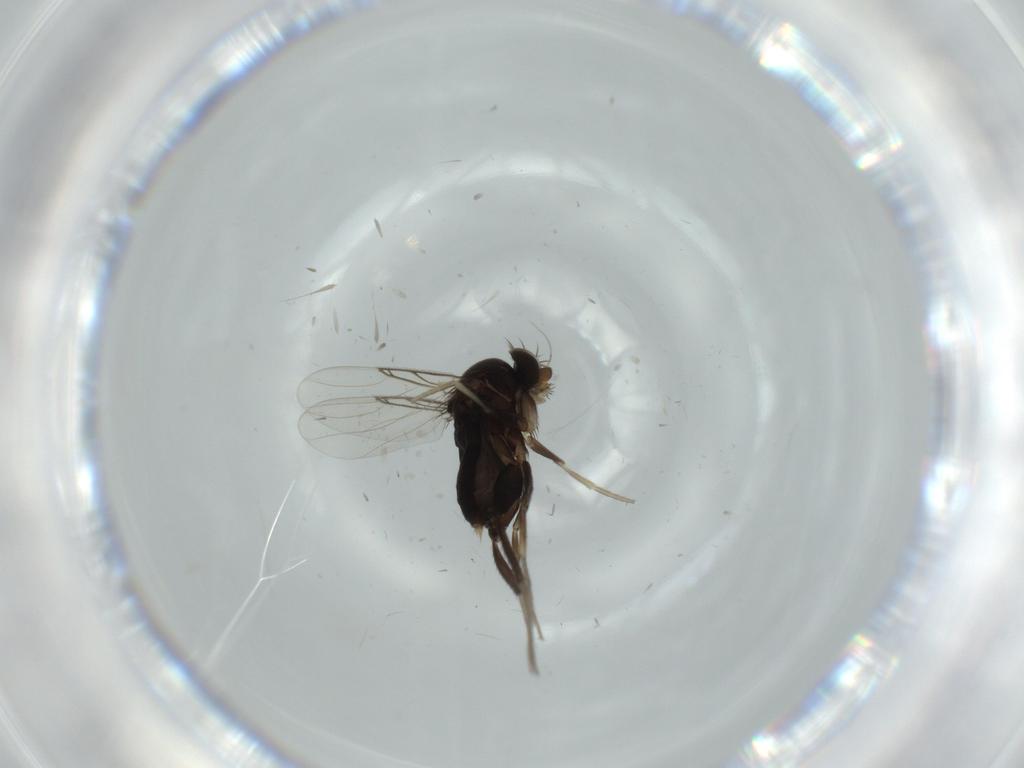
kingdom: Animalia
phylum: Arthropoda
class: Insecta
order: Diptera
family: Phoridae
